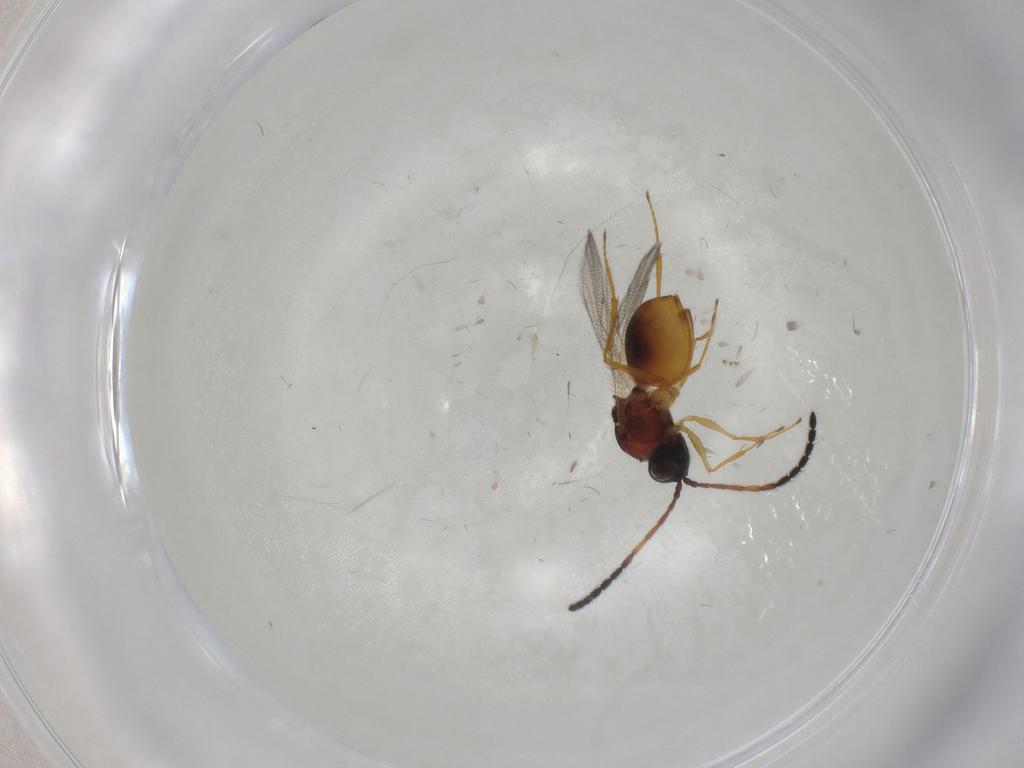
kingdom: Animalia
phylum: Arthropoda
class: Insecta
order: Hymenoptera
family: Figitidae
